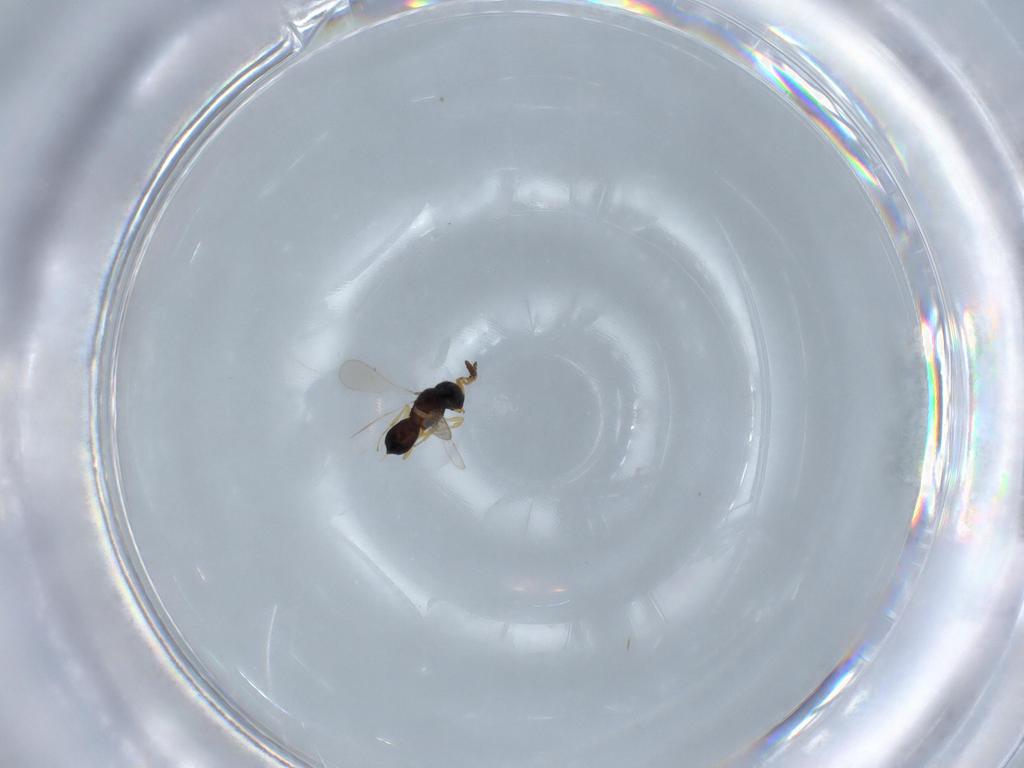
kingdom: Animalia
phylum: Arthropoda
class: Insecta
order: Hymenoptera
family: Scelionidae
